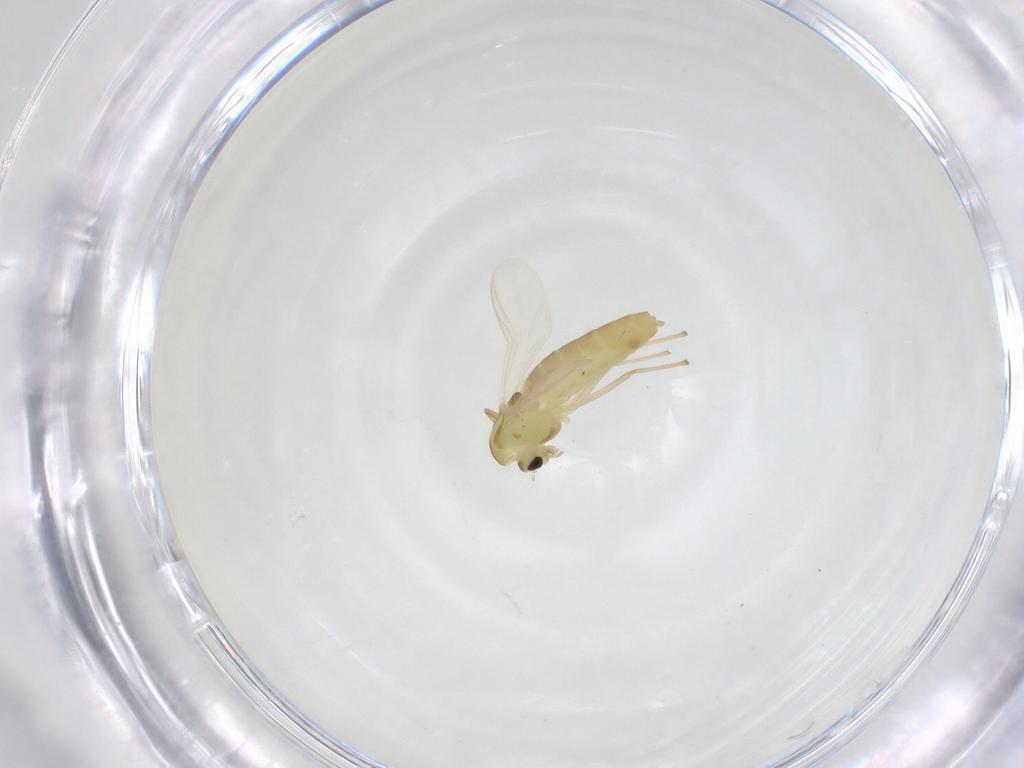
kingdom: Animalia
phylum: Arthropoda
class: Insecta
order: Diptera
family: Chironomidae
